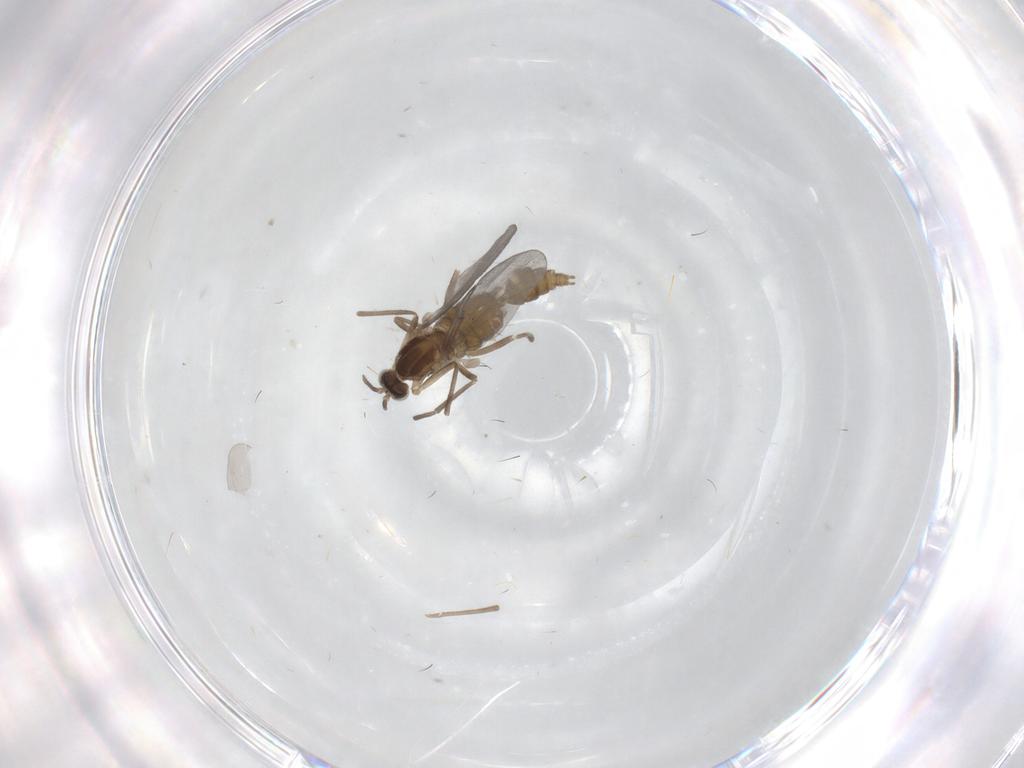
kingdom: Animalia
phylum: Arthropoda
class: Insecta
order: Diptera
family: Cecidomyiidae
